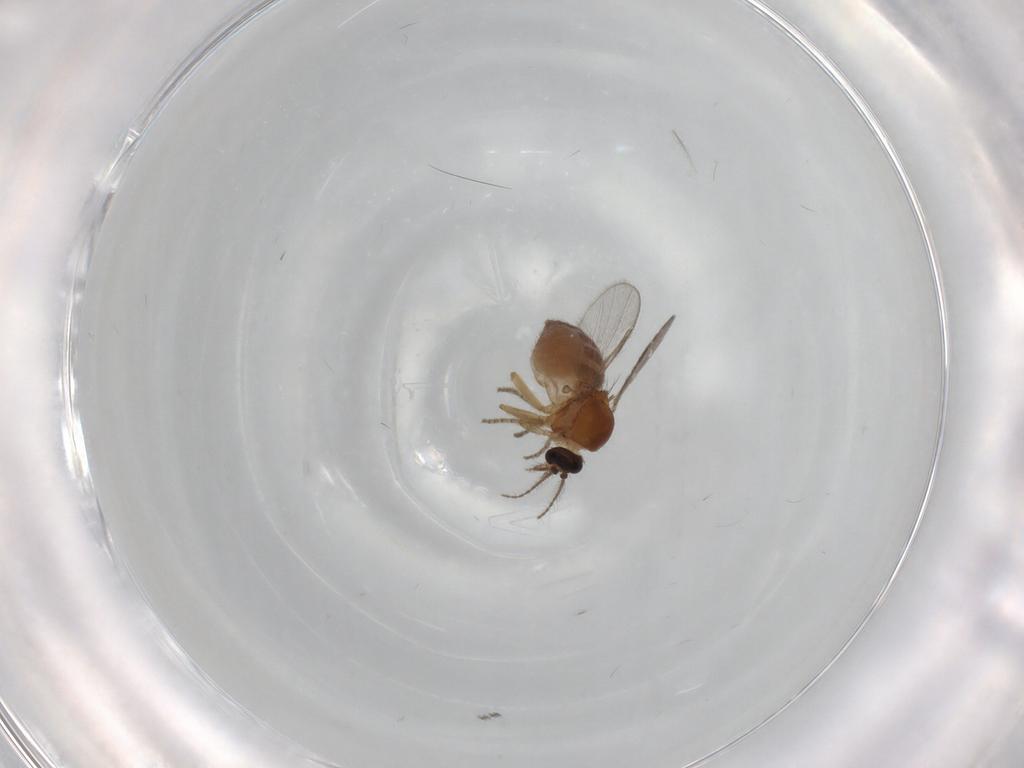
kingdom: Animalia
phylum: Arthropoda
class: Insecta
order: Diptera
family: Ceratopogonidae
